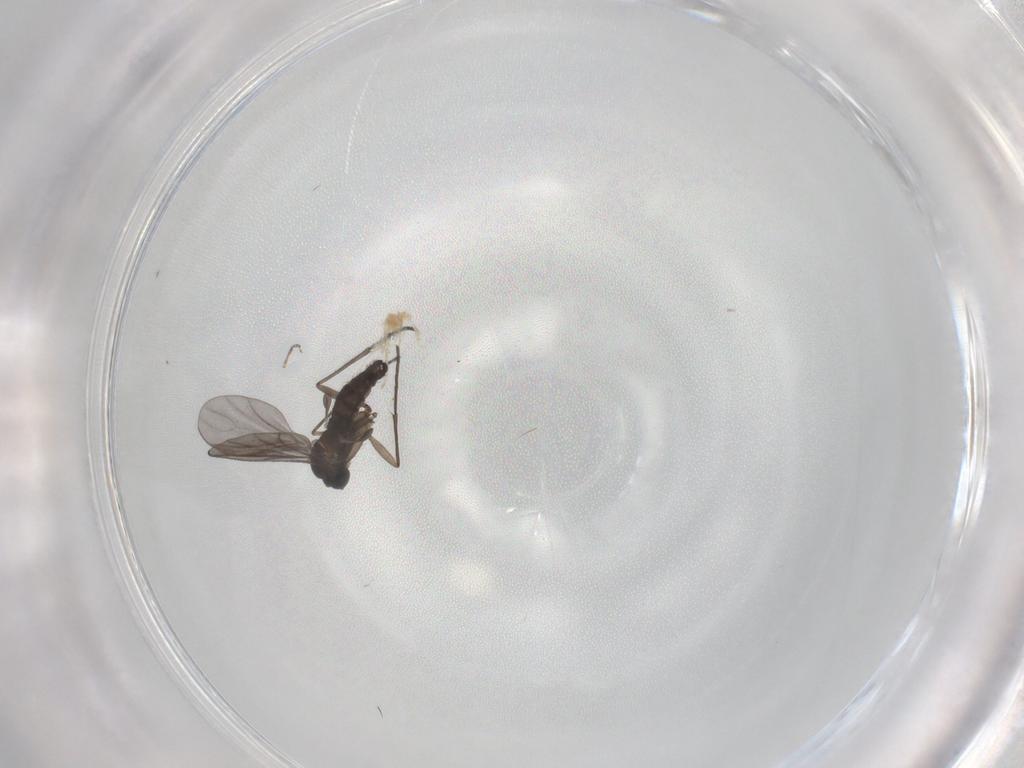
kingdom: Animalia
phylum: Arthropoda
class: Insecta
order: Diptera
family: Sciaridae
